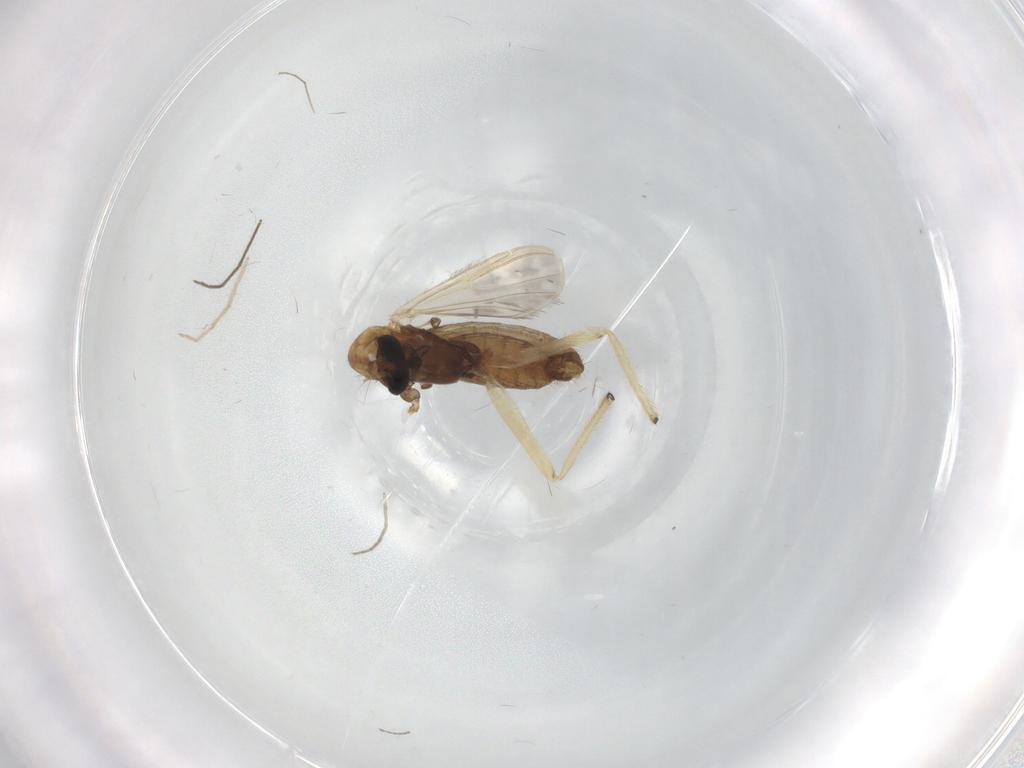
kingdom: Animalia
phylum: Arthropoda
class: Insecta
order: Diptera
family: Chironomidae
